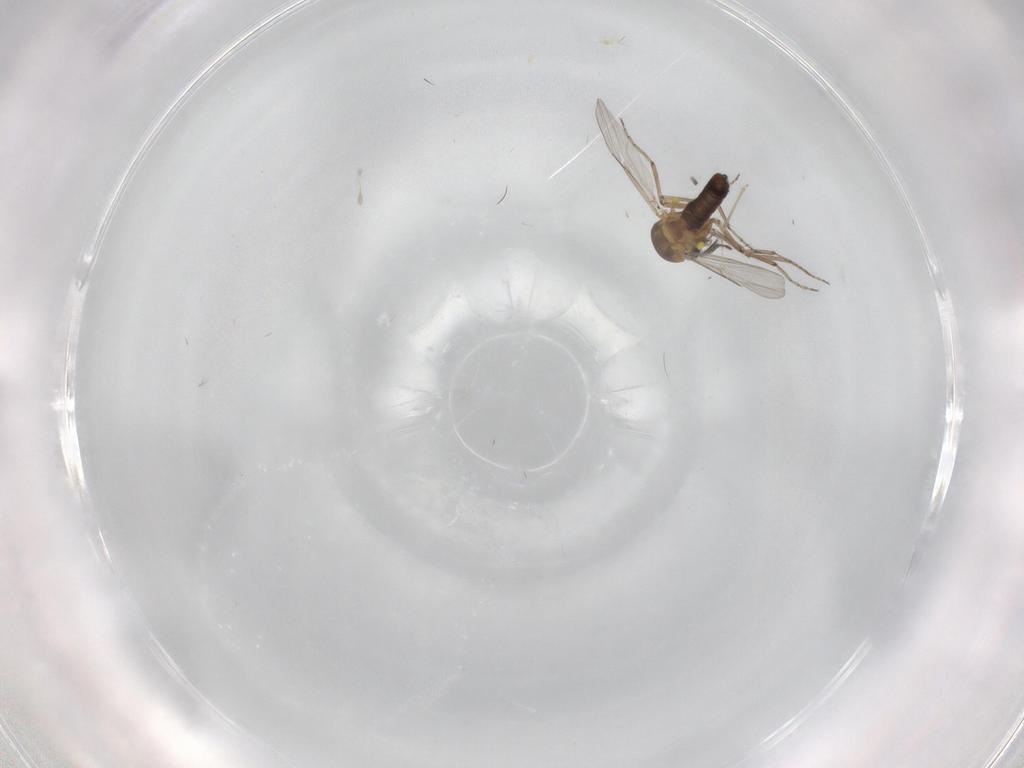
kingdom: Animalia
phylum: Arthropoda
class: Insecta
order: Diptera
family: Ceratopogonidae
